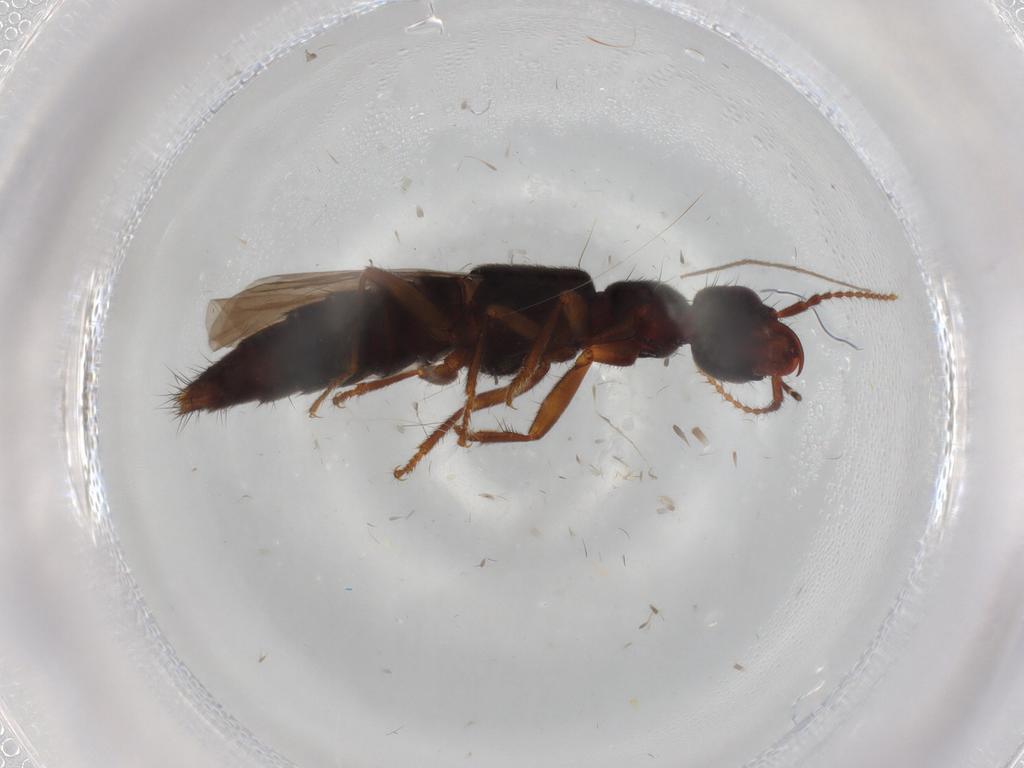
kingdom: Animalia
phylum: Arthropoda
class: Insecta
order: Coleoptera
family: Curculionidae
